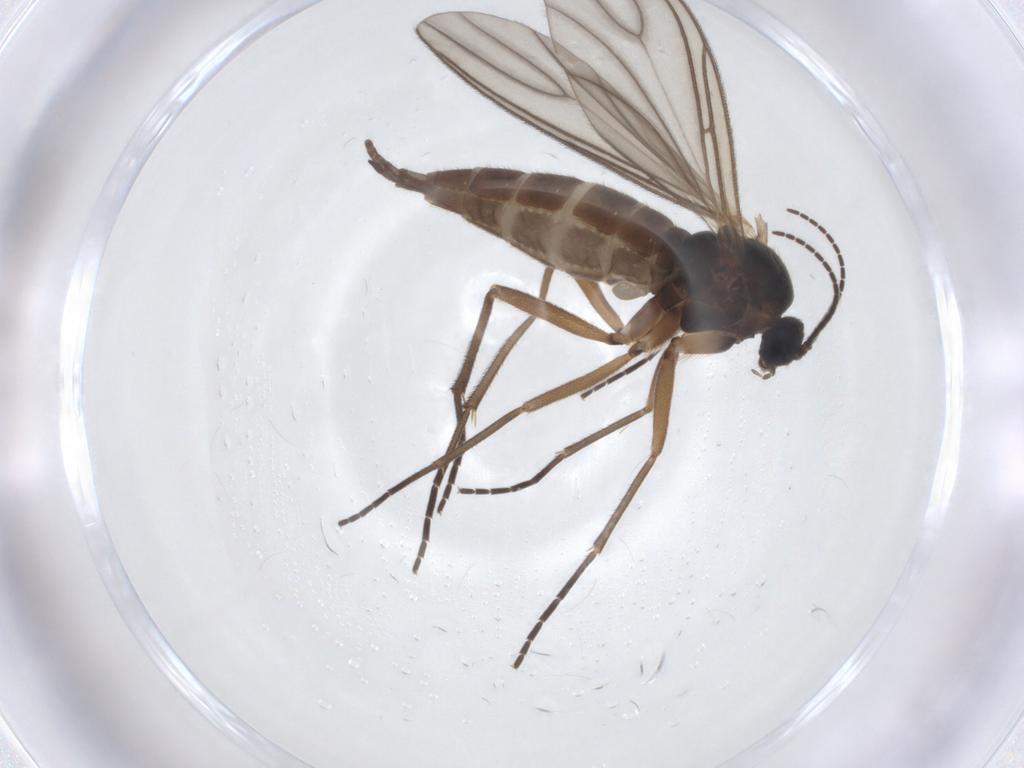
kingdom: Animalia
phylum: Arthropoda
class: Insecta
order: Diptera
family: Sciaridae
